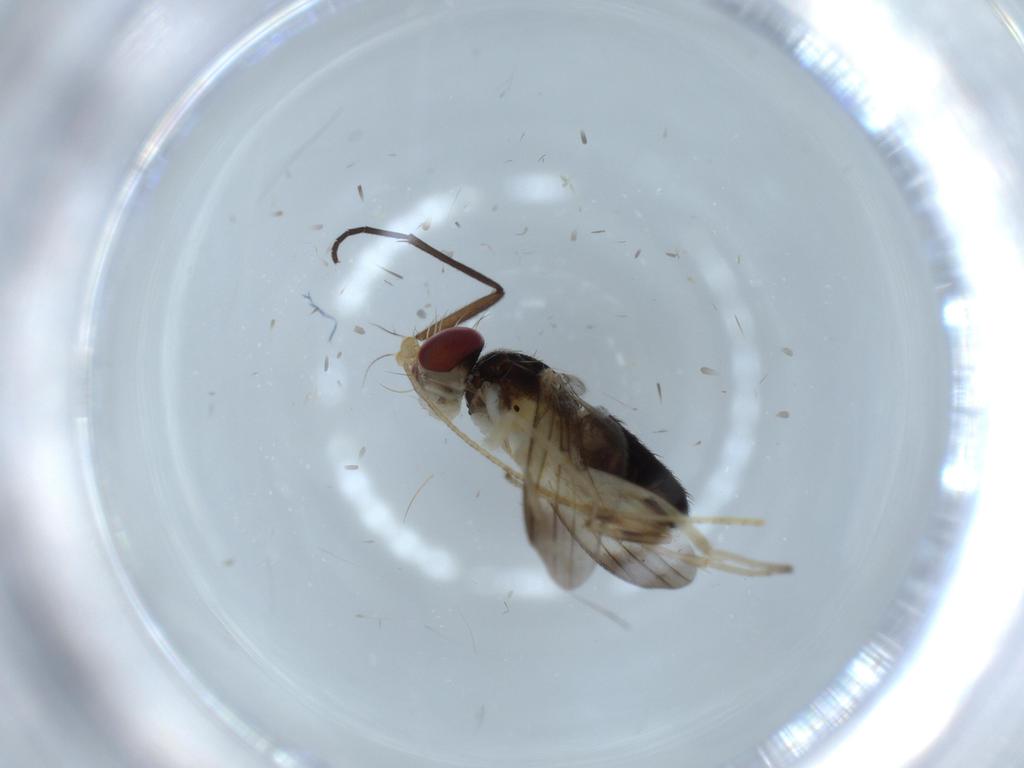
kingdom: Animalia
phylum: Arthropoda
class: Insecta
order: Diptera
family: Clusiidae
